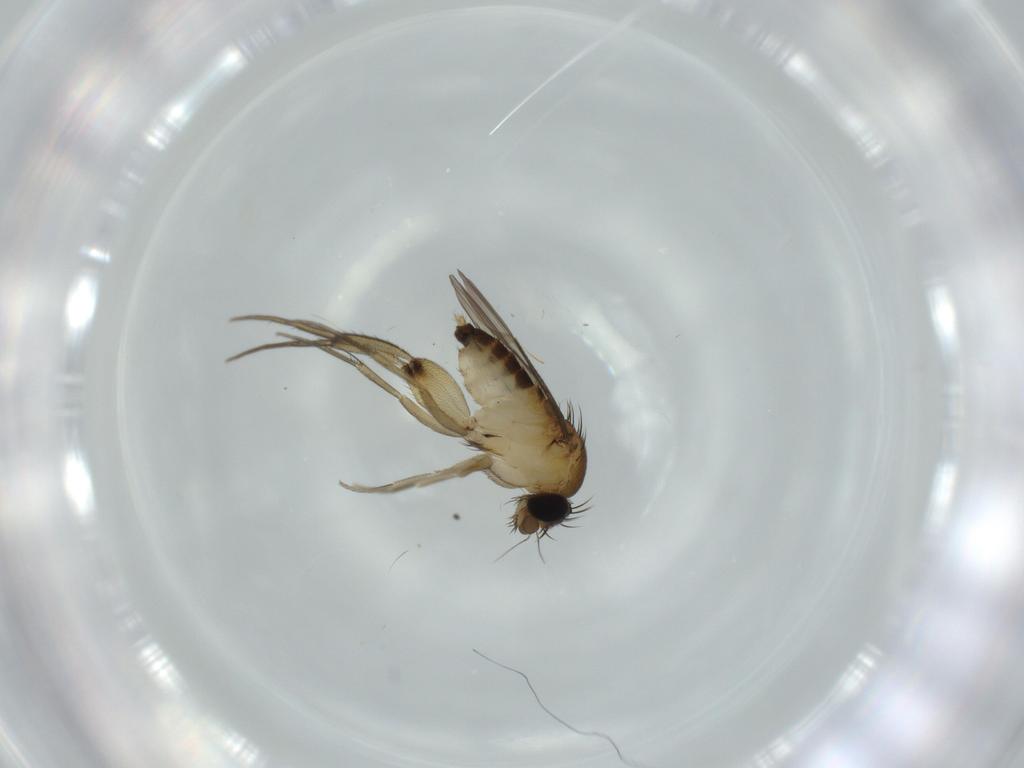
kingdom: Animalia
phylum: Arthropoda
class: Insecta
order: Diptera
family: Phoridae
